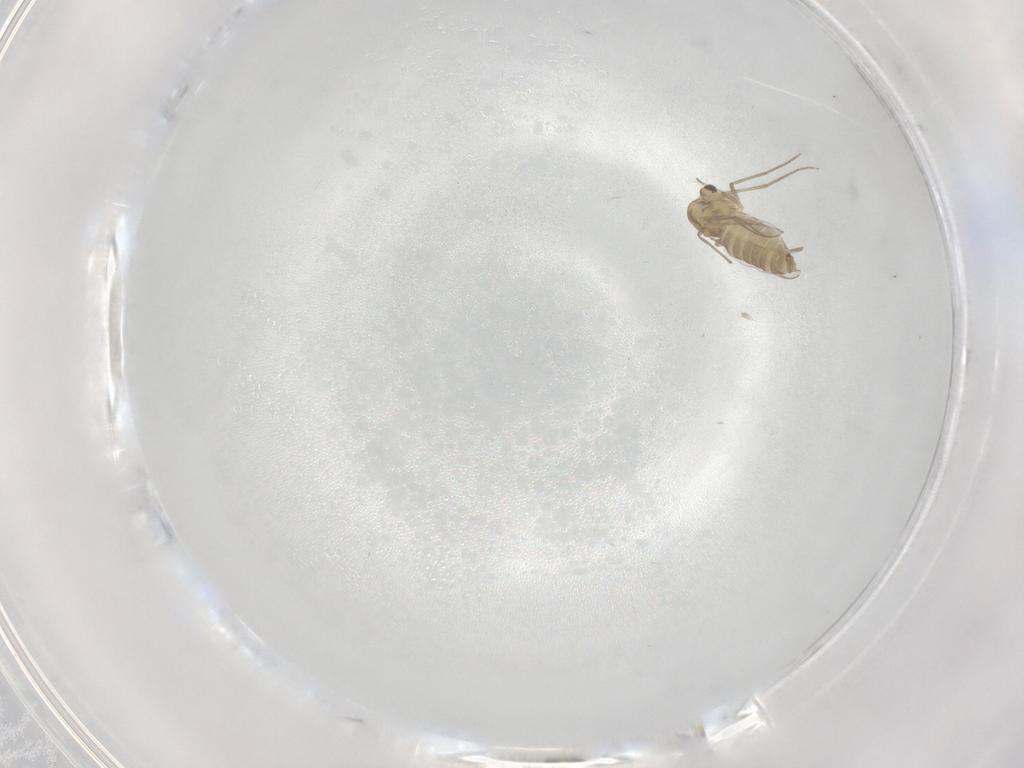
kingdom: Animalia
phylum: Arthropoda
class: Insecta
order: Diptera
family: Chironomidae
